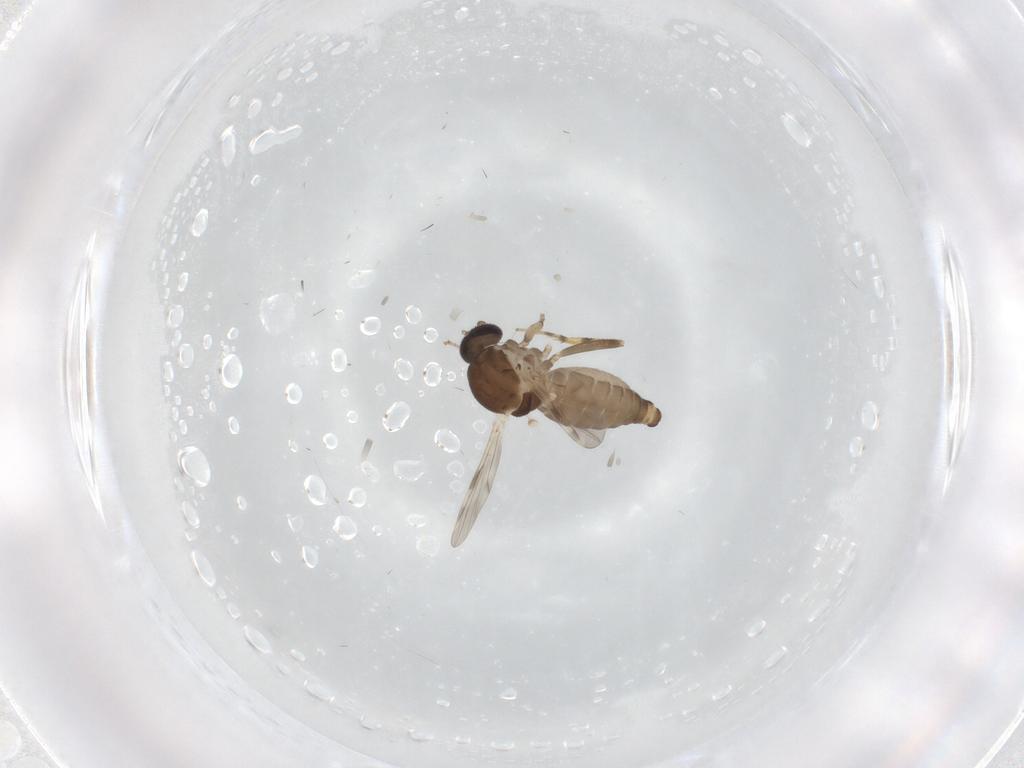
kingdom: Animalia
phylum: Arthropoda
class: Insecta
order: Diptera
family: Ceratopogonidae
